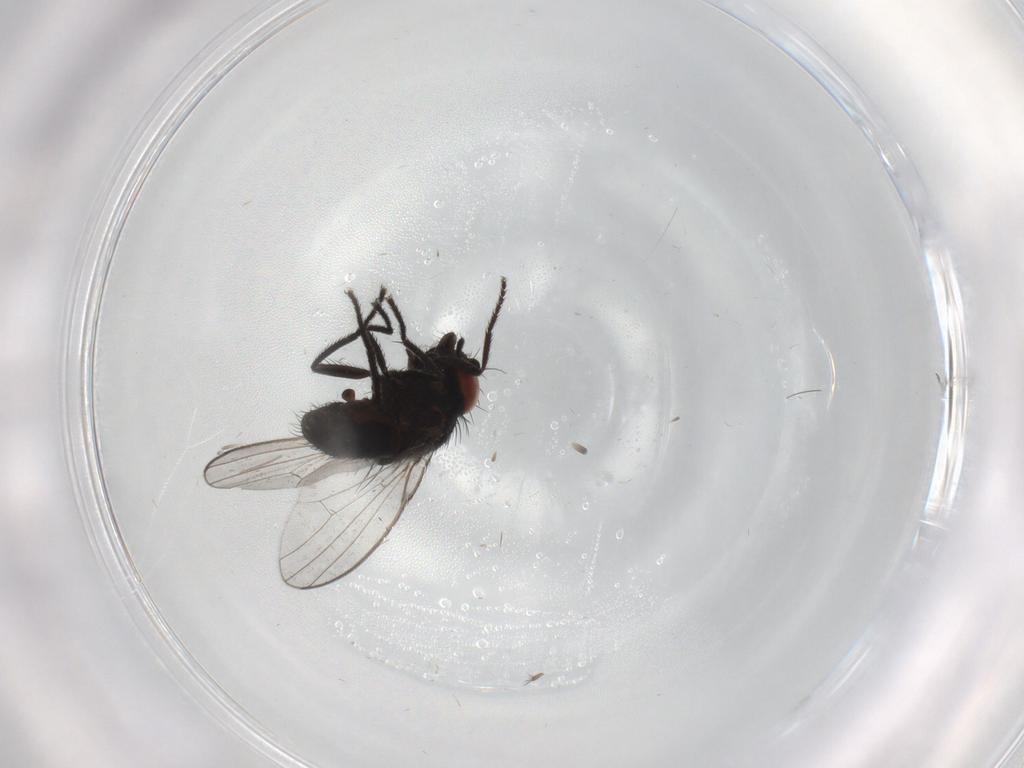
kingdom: Animalia
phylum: Arthropoda
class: Insecta
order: Diptera
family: Milichiidae
